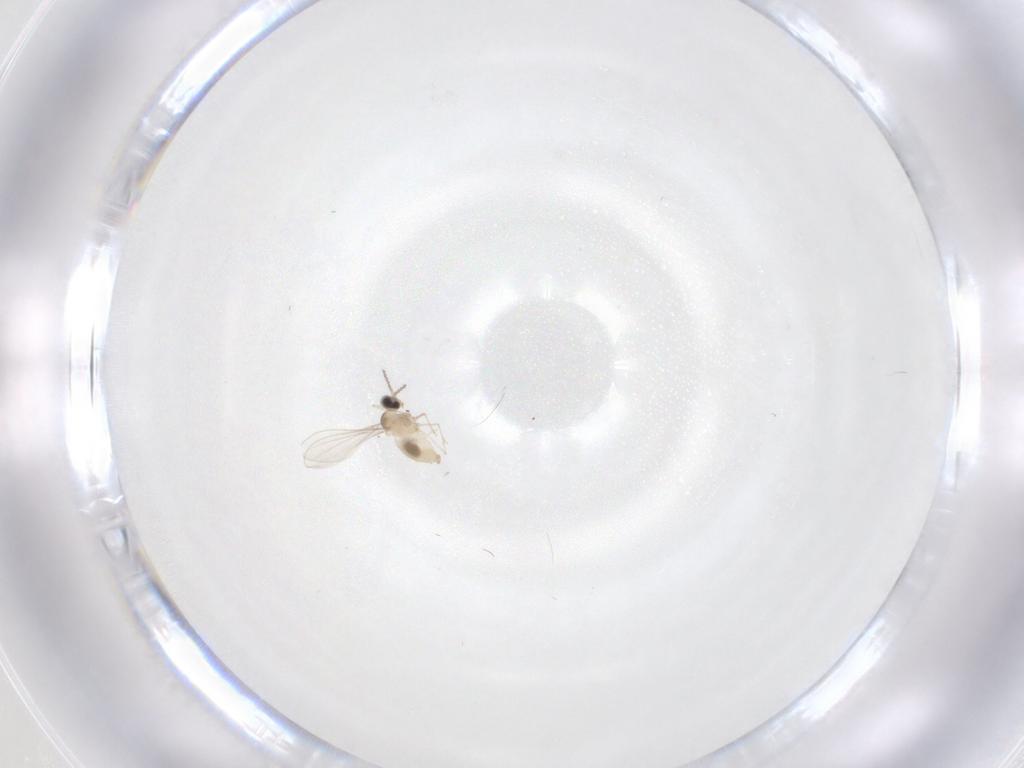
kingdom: Animalia
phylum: Arthropoda
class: Insecta
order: Diptera
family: Cecidomyiidae
